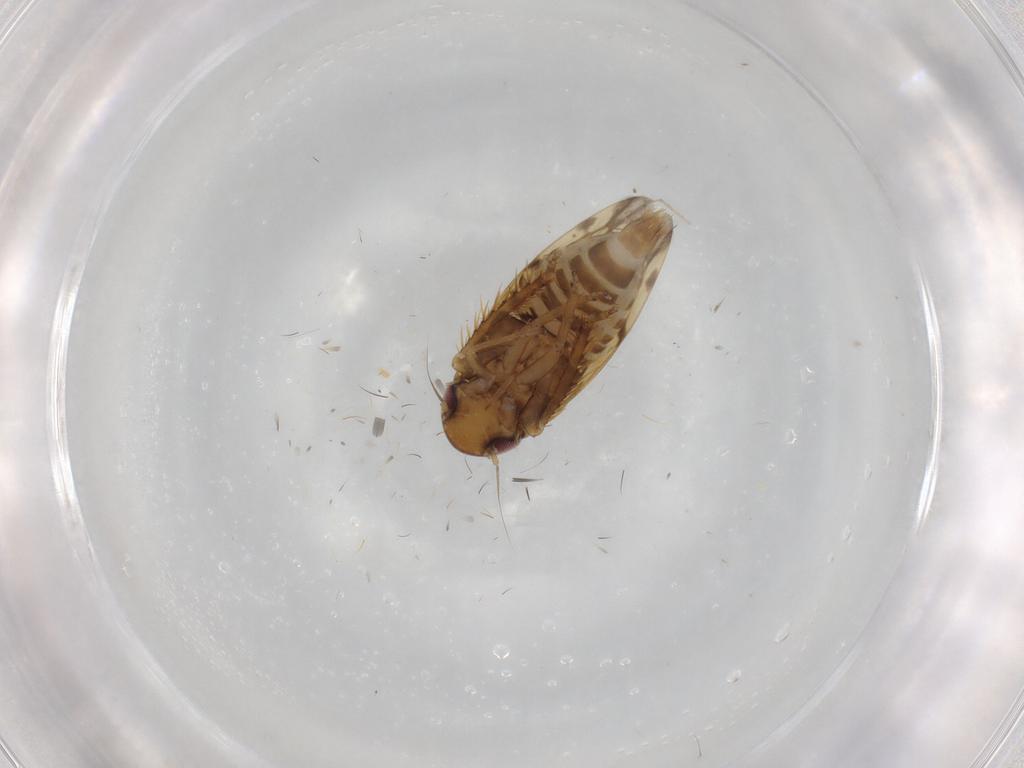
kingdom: Animalia
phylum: Arthropoda
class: Insecta
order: Hemiptera
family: Cicadellidae
